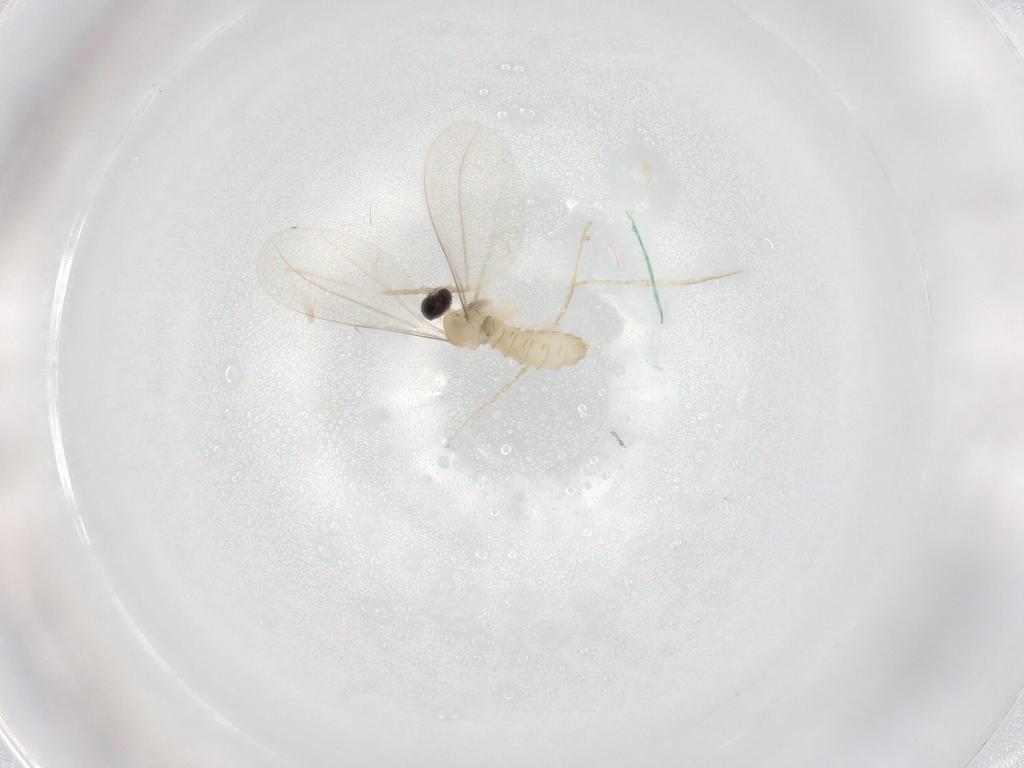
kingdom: Animalia
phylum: Arthropoda
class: Insecta
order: Diptera
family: Cecidomyiidae
